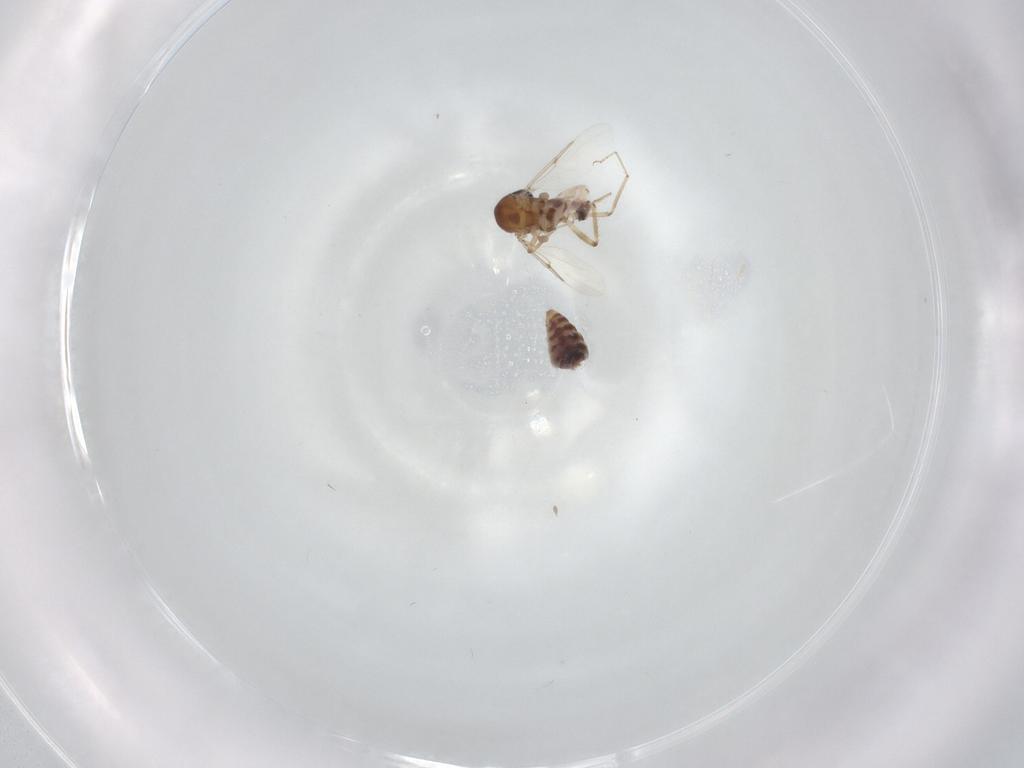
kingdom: Animalia
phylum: Arthropoda
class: Insecta
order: Diptera
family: Ceratopogonidae
